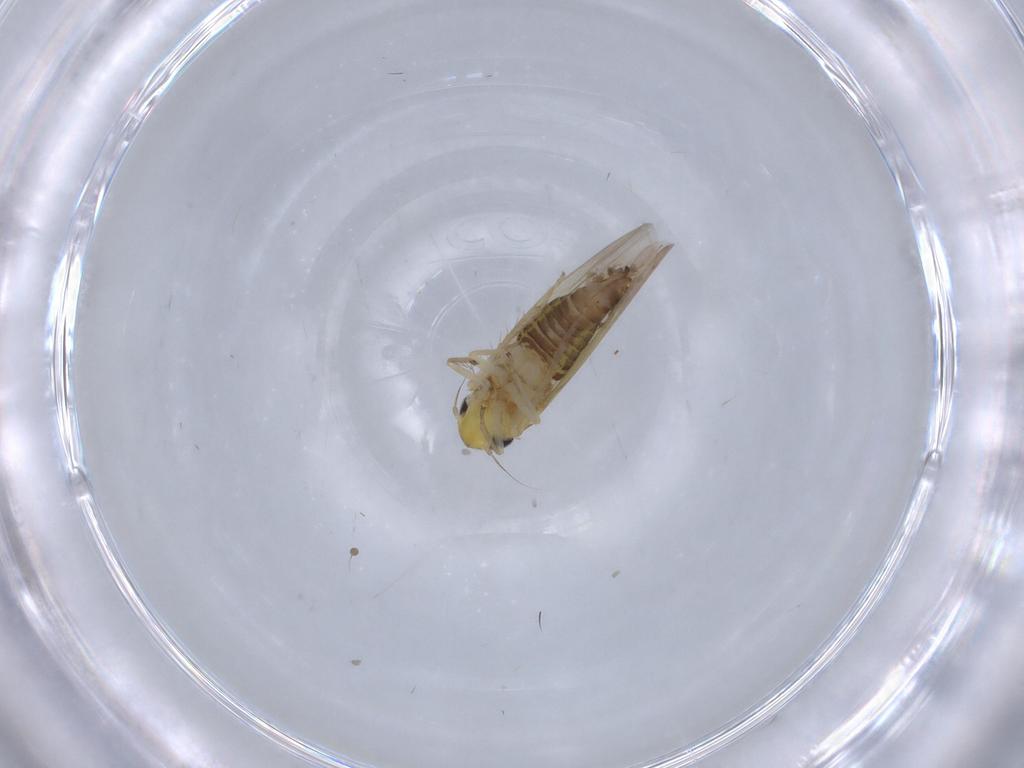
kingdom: Animalia
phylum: Arthropoda
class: Insecta
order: Hemiptera
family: Cicadellidae
